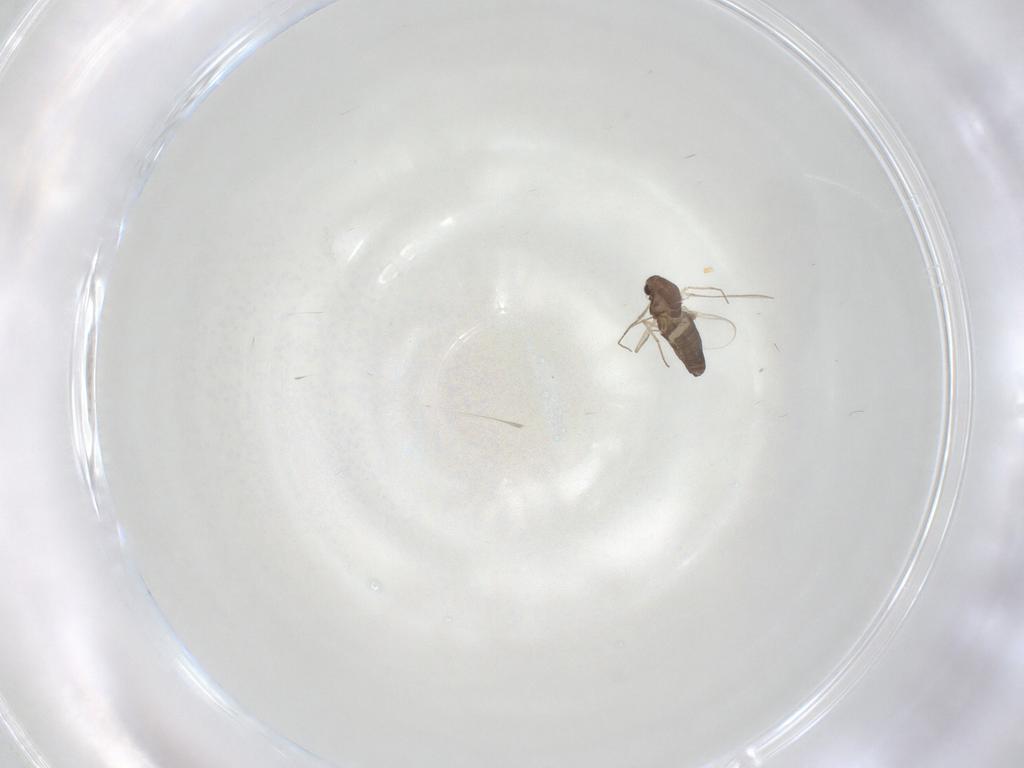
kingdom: Animalia
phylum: Arthropoda
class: Insecta
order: Diptera
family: Chironomidae
